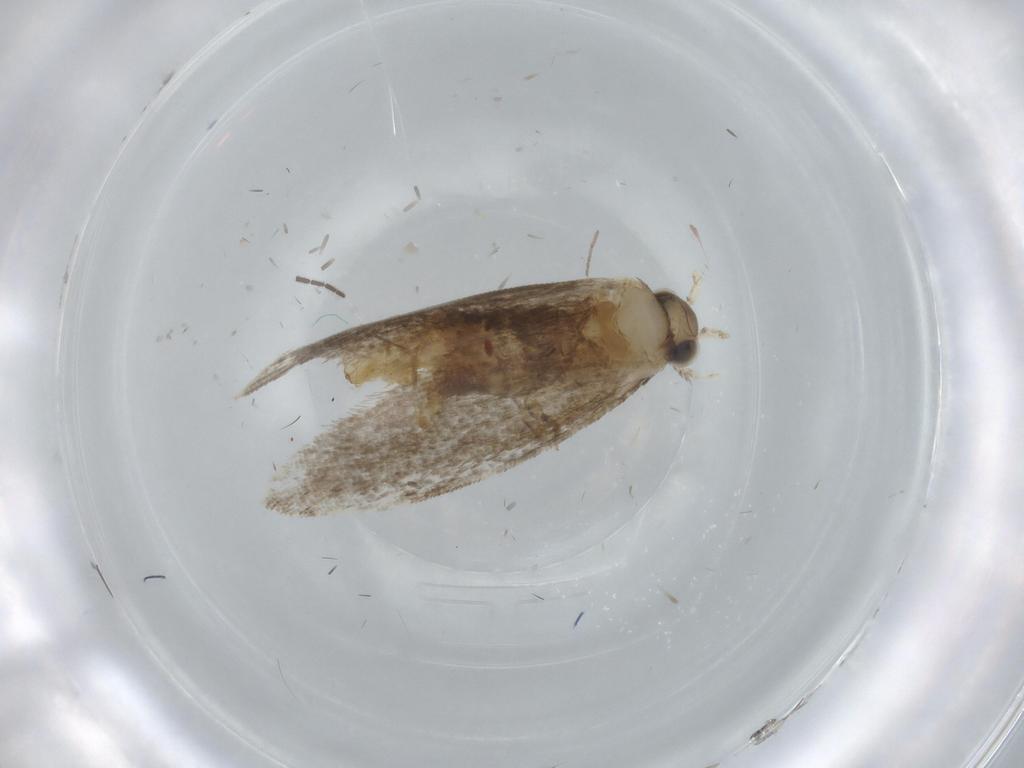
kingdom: Animalia
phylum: Arthropoda
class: Insecta
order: Lepidoptera
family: Tineidae
